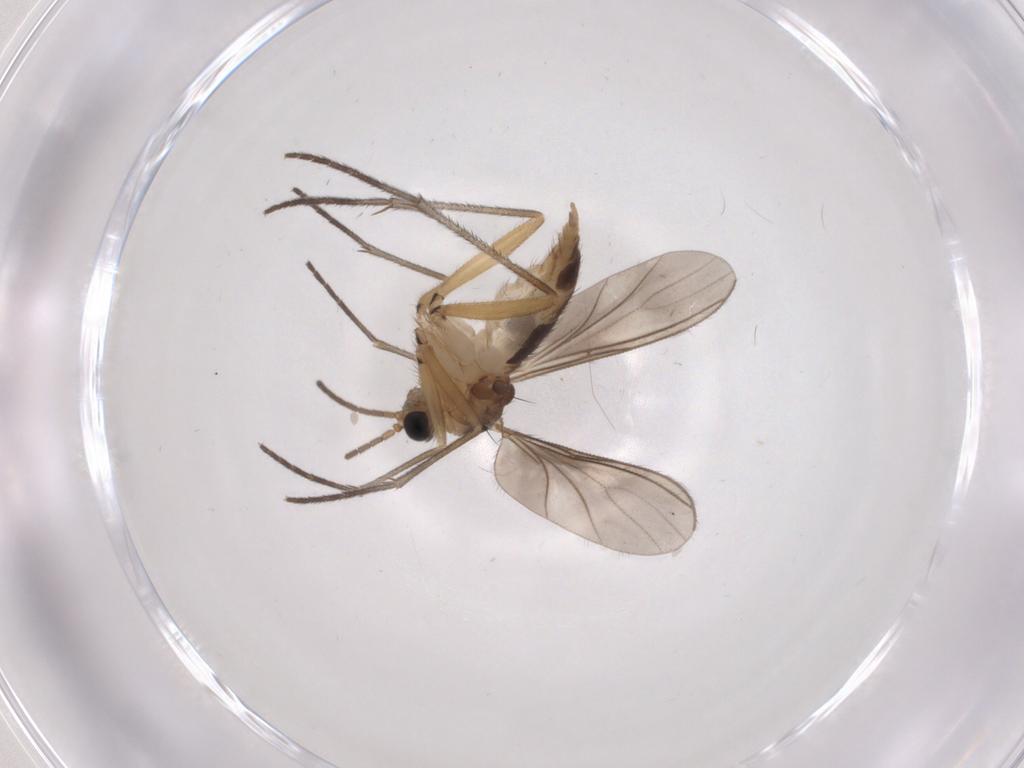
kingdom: Animalia
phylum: Arthropoda
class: Insecta
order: Diptera
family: Sciaridae
